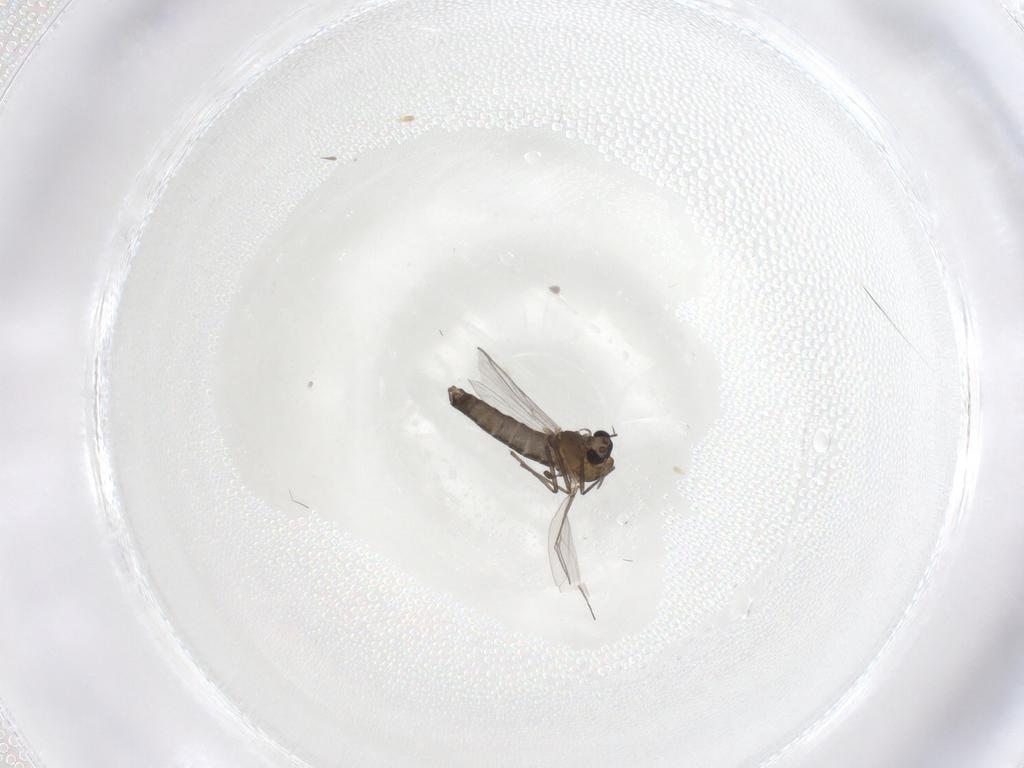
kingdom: Animalia
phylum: Arthropoda
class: Insecta
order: Diptera
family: Chironomidae
